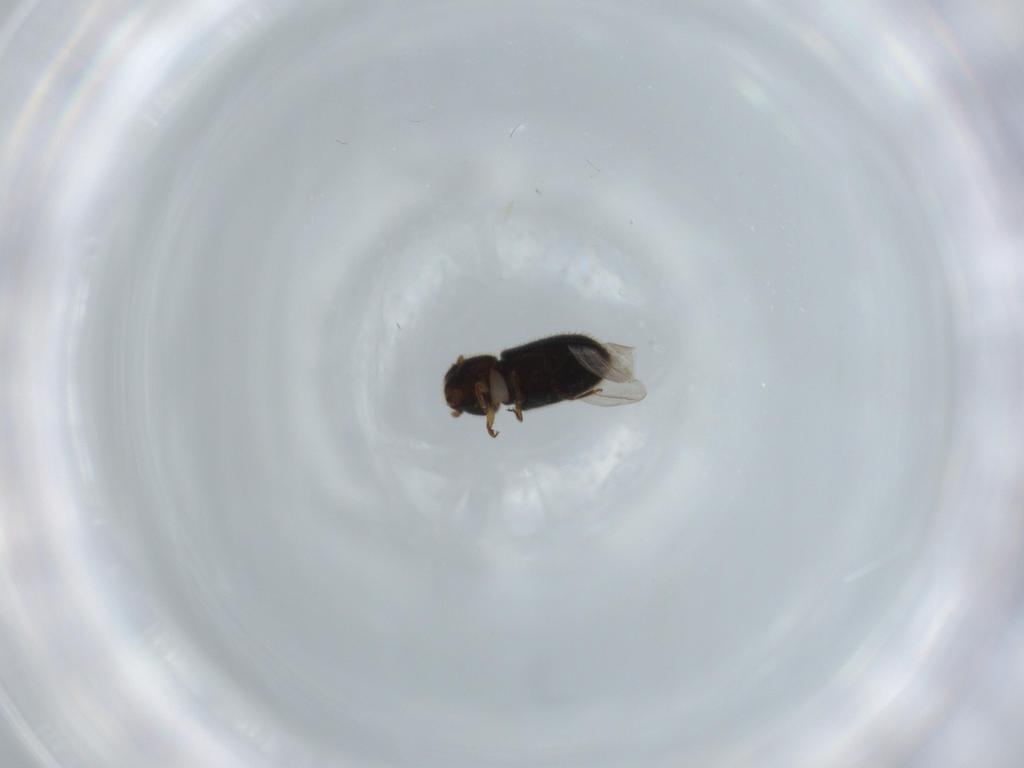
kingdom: Animalia
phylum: Arthropoda
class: Insecta
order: Coleoptera
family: Curculionidae
